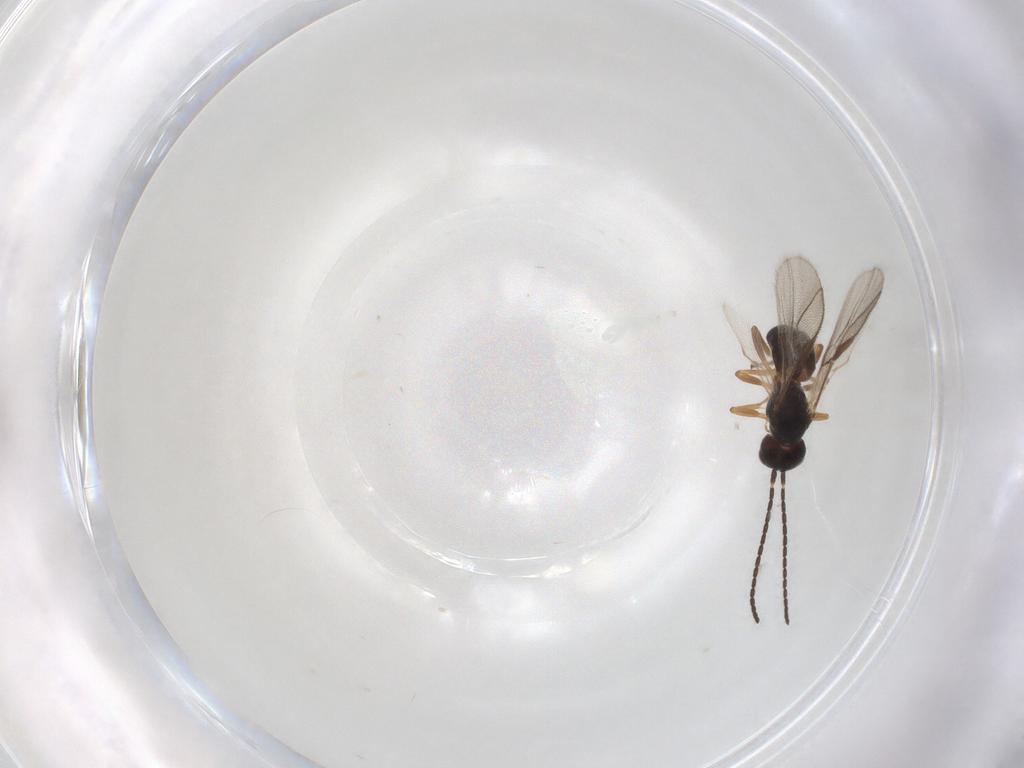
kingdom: Animalia
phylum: Arthropoda
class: Insecta
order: Hymenoptera
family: Braconidae
